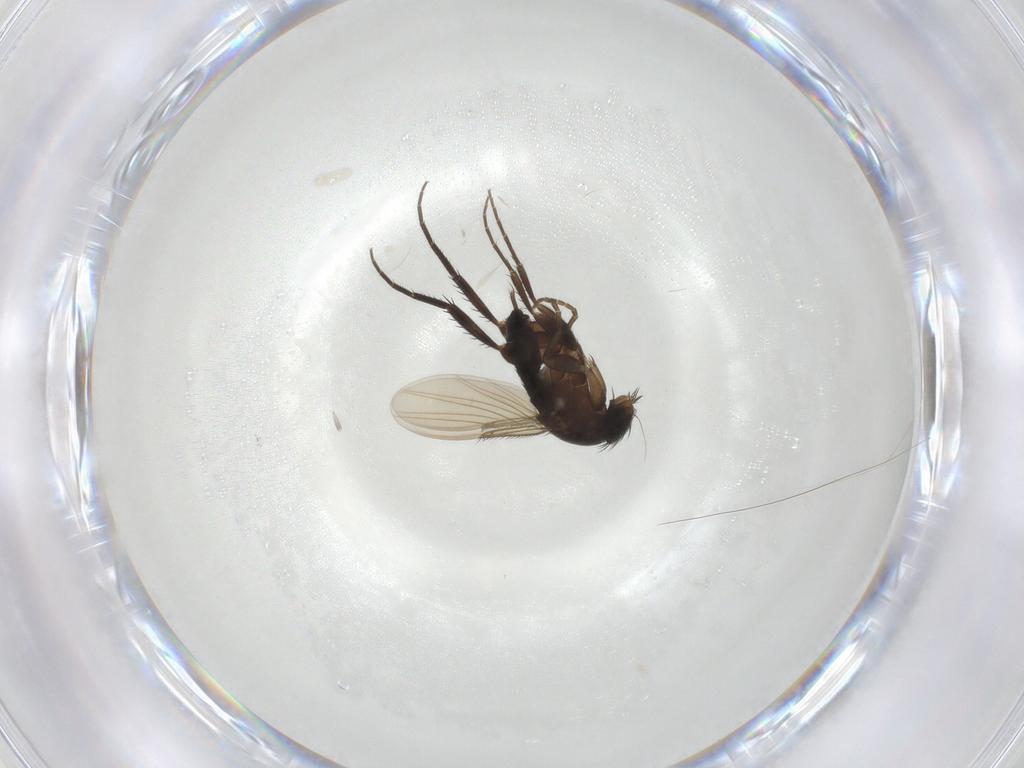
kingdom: Animalia
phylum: Arthropoda
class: Insecta
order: Diptera
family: Phoridae
